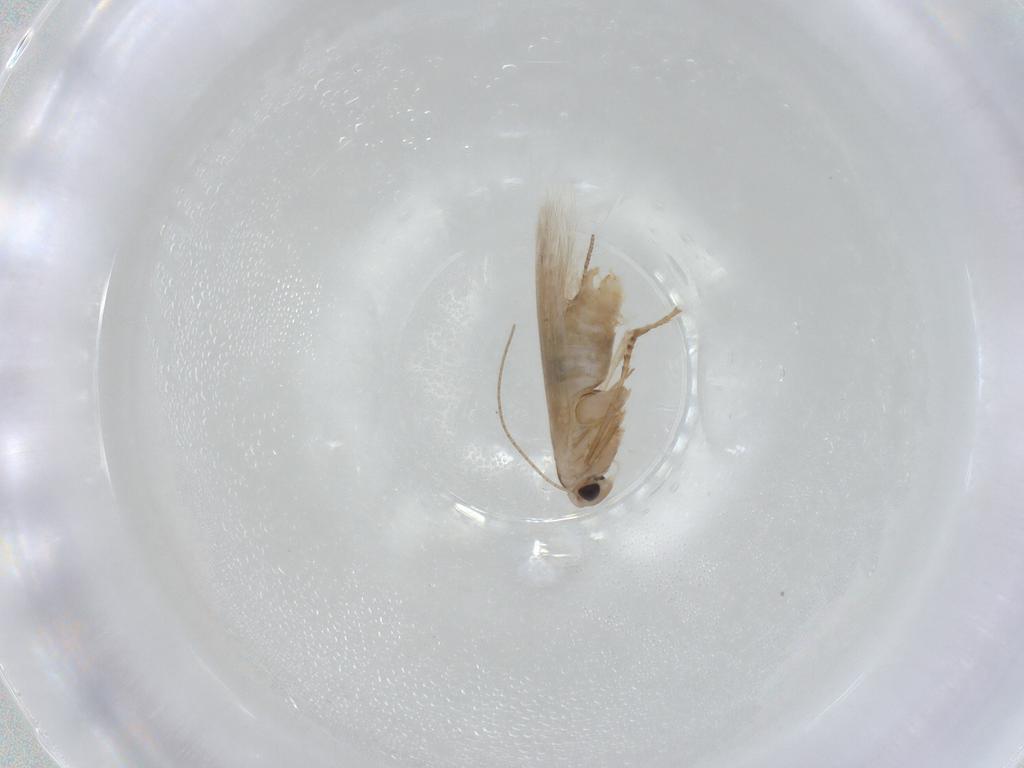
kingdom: Animalia
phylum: Arthropoda
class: Insecta
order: Lepidoptera
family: Bucculatricidae
